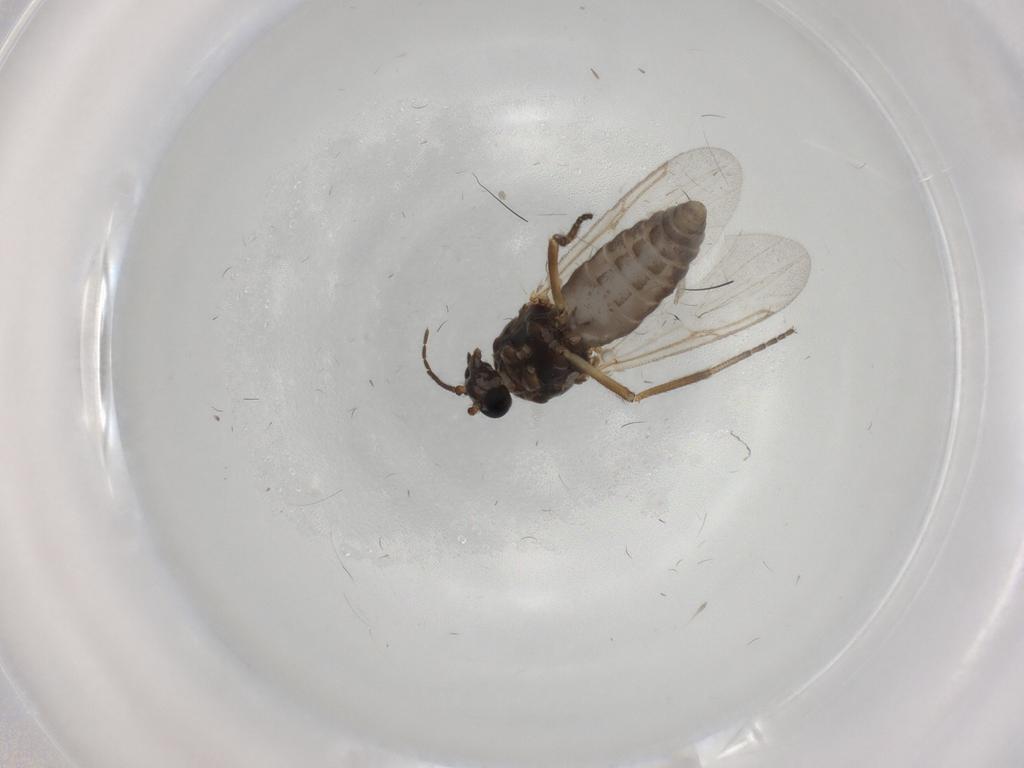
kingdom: Animalia
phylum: Arthropoda
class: Insecta
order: Diptera
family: Ceratopogonidae
